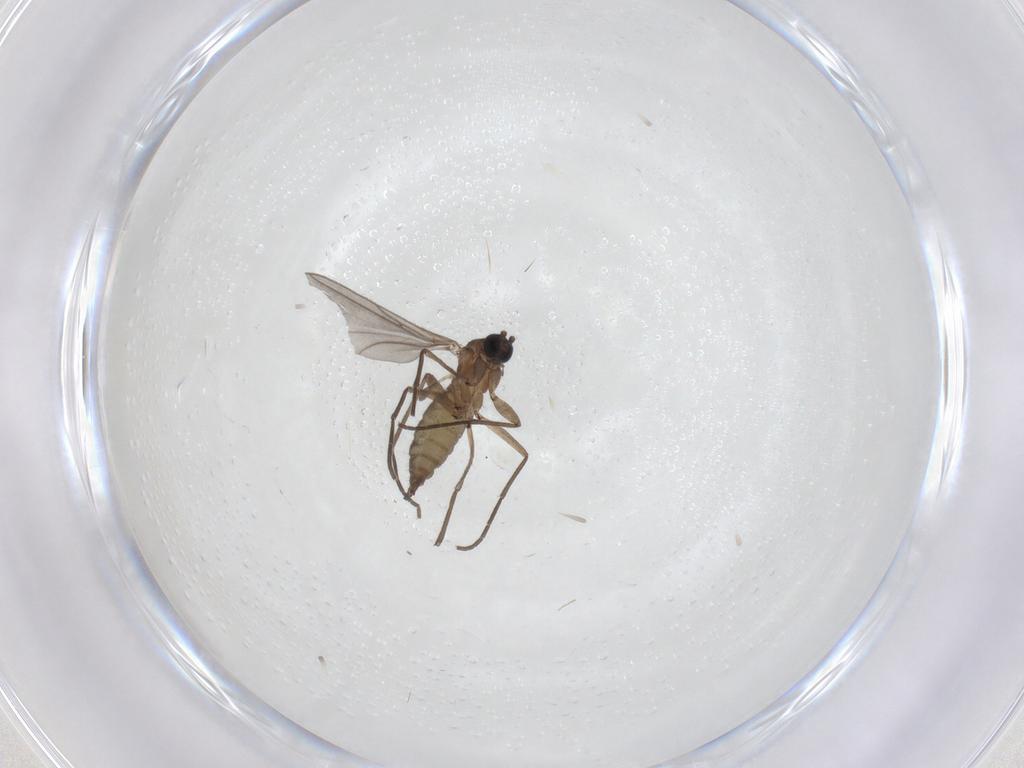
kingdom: Animalia
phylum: Arthropoda
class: Insecta
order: Diptera
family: Sciaridae
